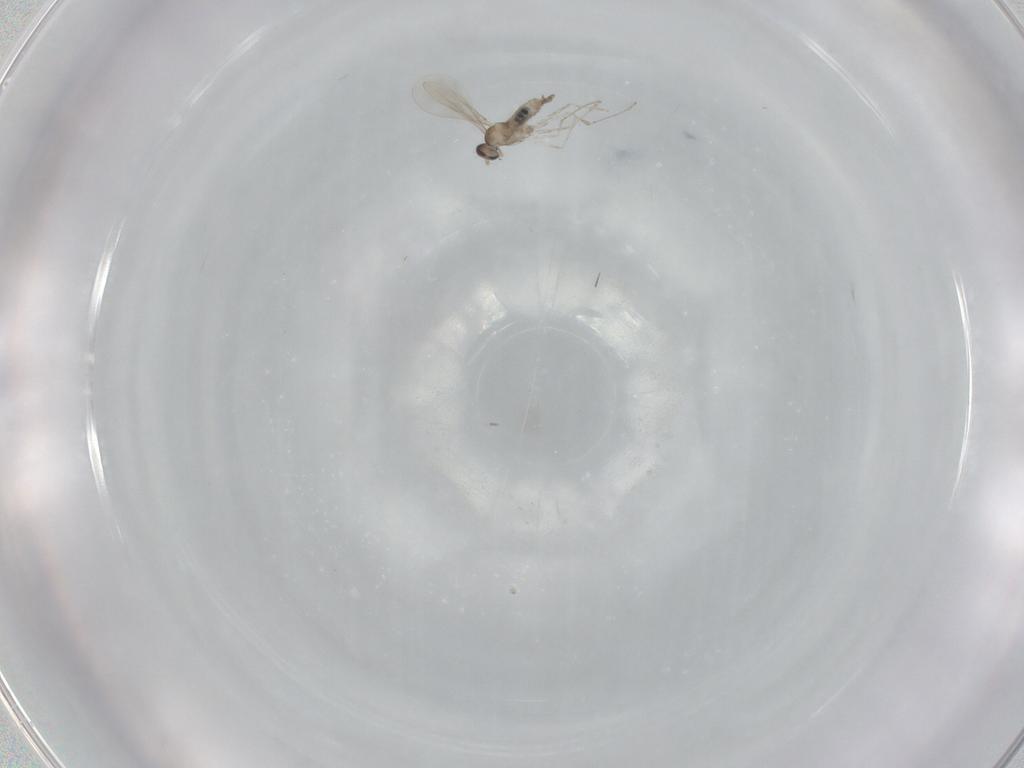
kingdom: Animalia
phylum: Arthropoda
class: Insecta
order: Diptera
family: Cecidomyiidae
